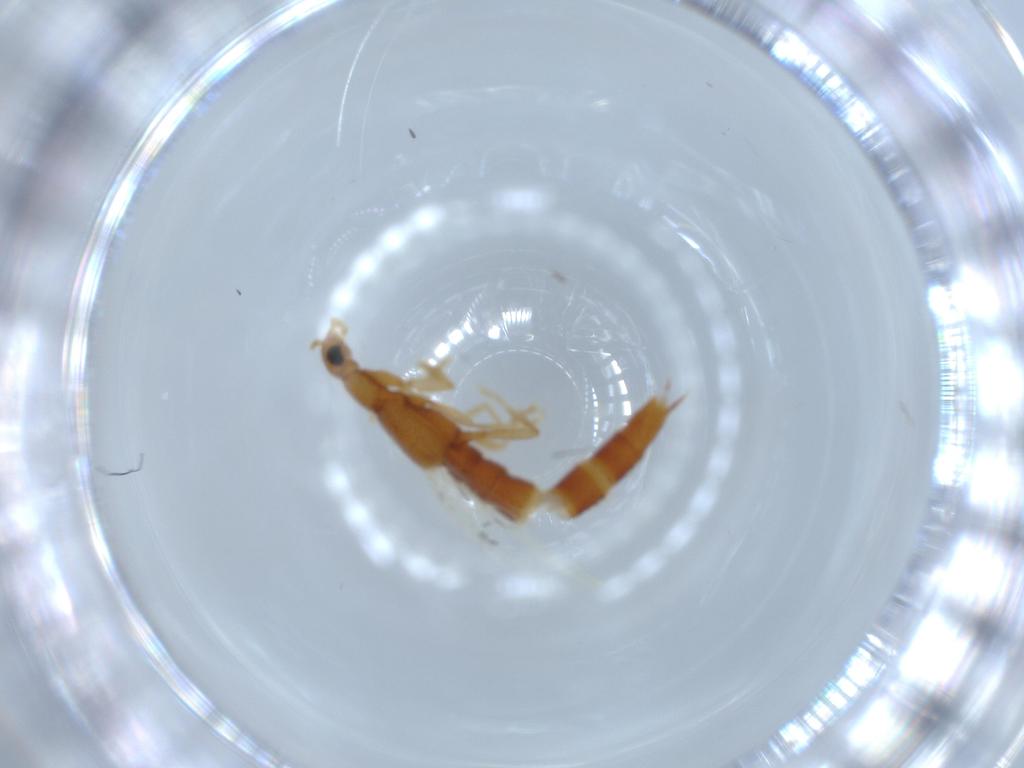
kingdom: Animalia
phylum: Arthropoda
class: Insecta
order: Coleoptera
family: Staphylinidae
